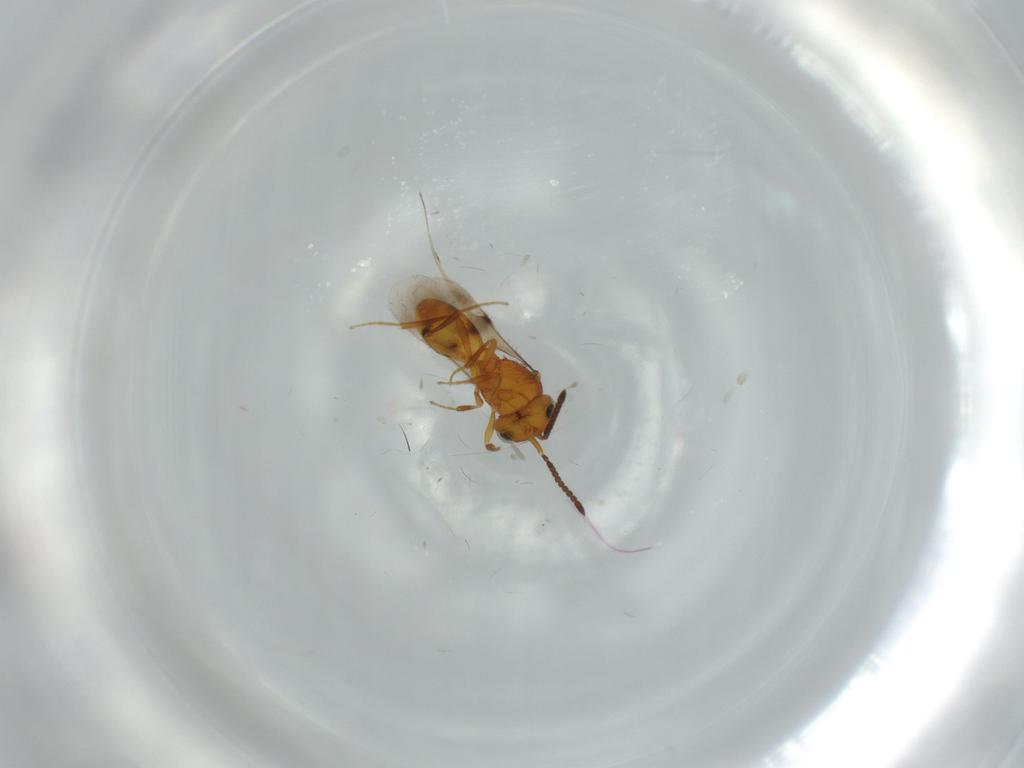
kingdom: Animalia
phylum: Arthropoda
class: Insecta
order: Hymenoptera
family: Scelionidae
